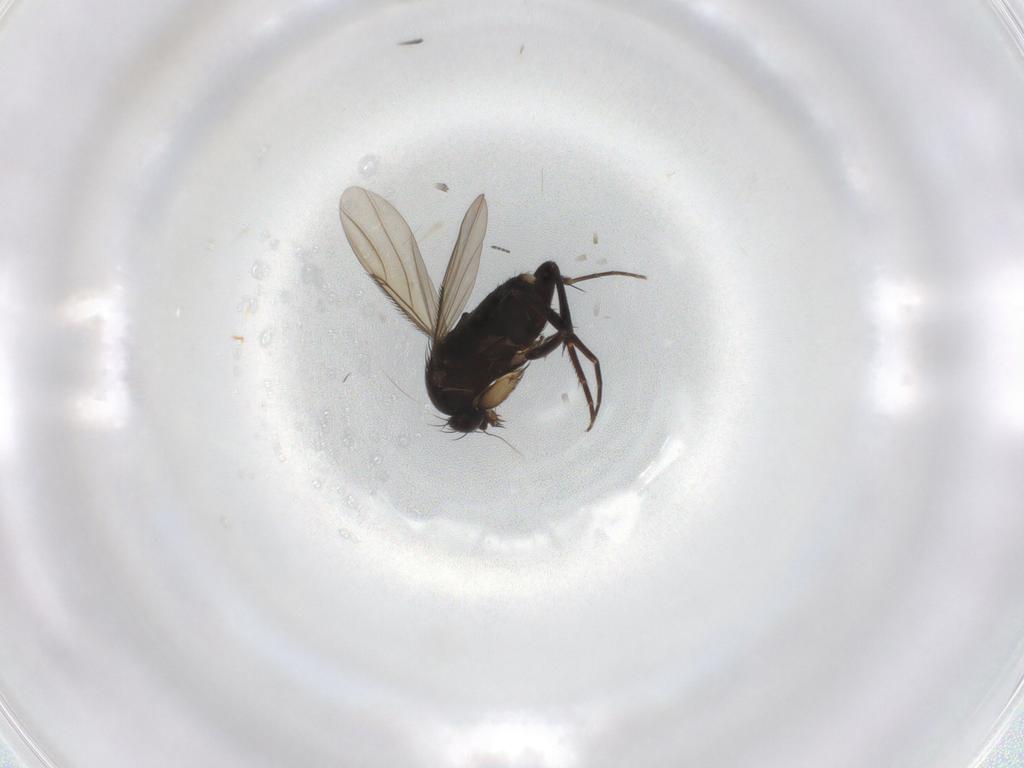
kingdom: Animalia
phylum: Arthropoda
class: Insecta
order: Diptera
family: Phoridae
